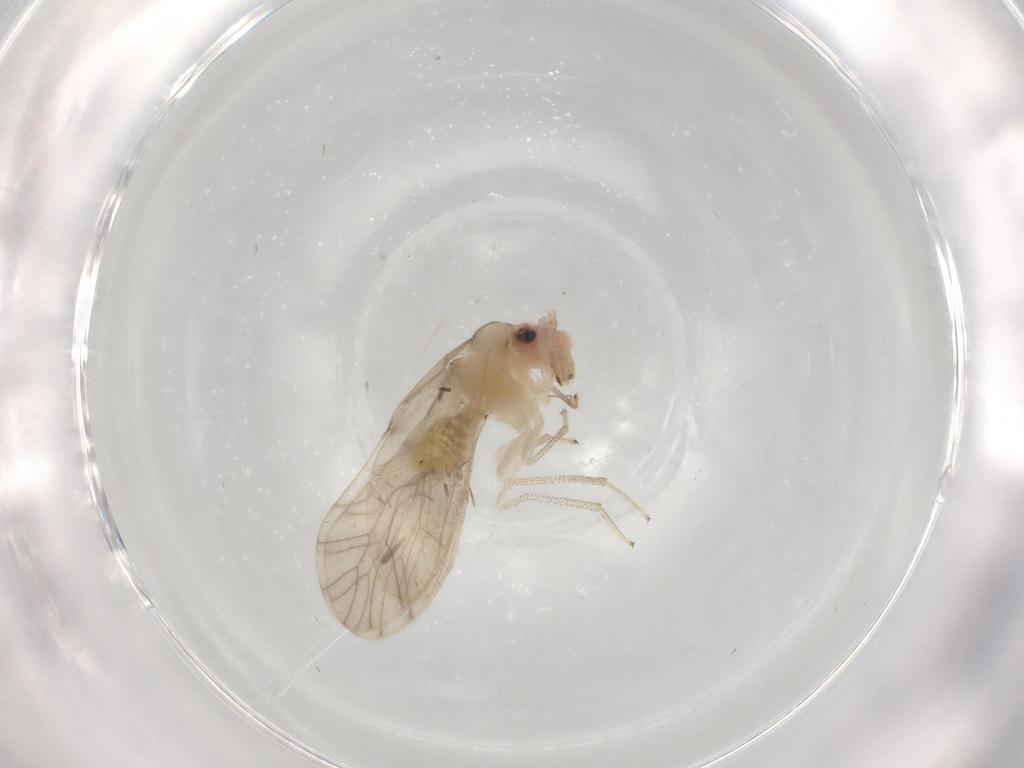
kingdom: Animalia
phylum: Arthropoda
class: Insecta
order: Psocodea
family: Caeciliusidae
